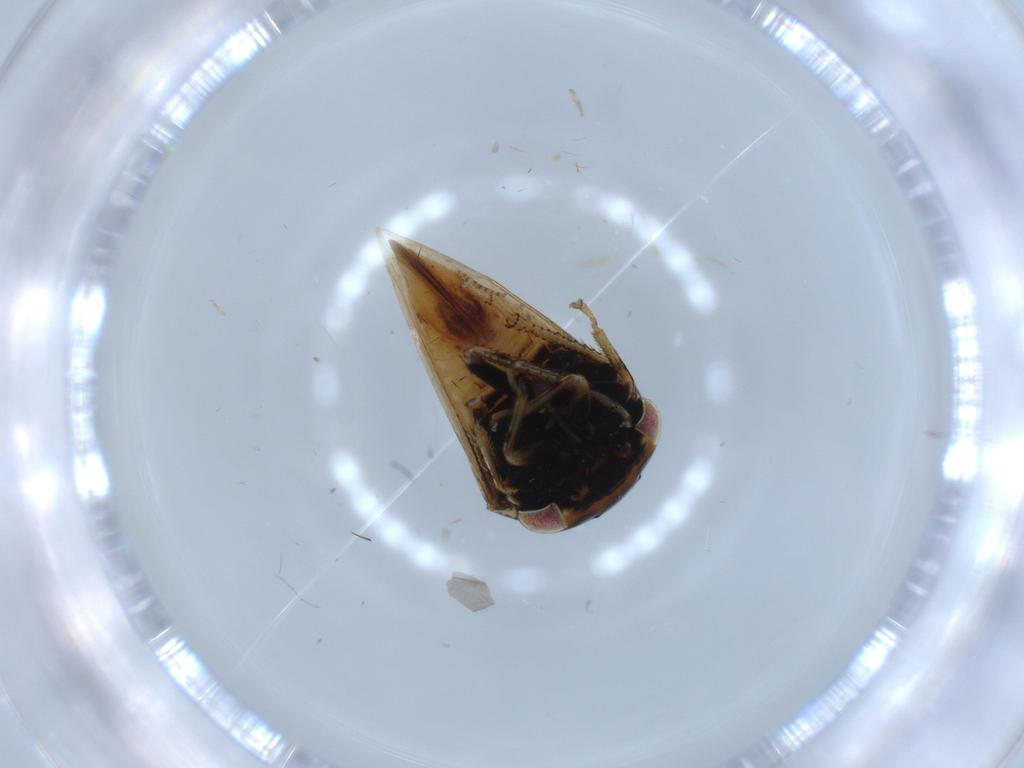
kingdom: Animalia
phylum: Arthropoda
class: Insecta
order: Hemiptera
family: Membracidae
